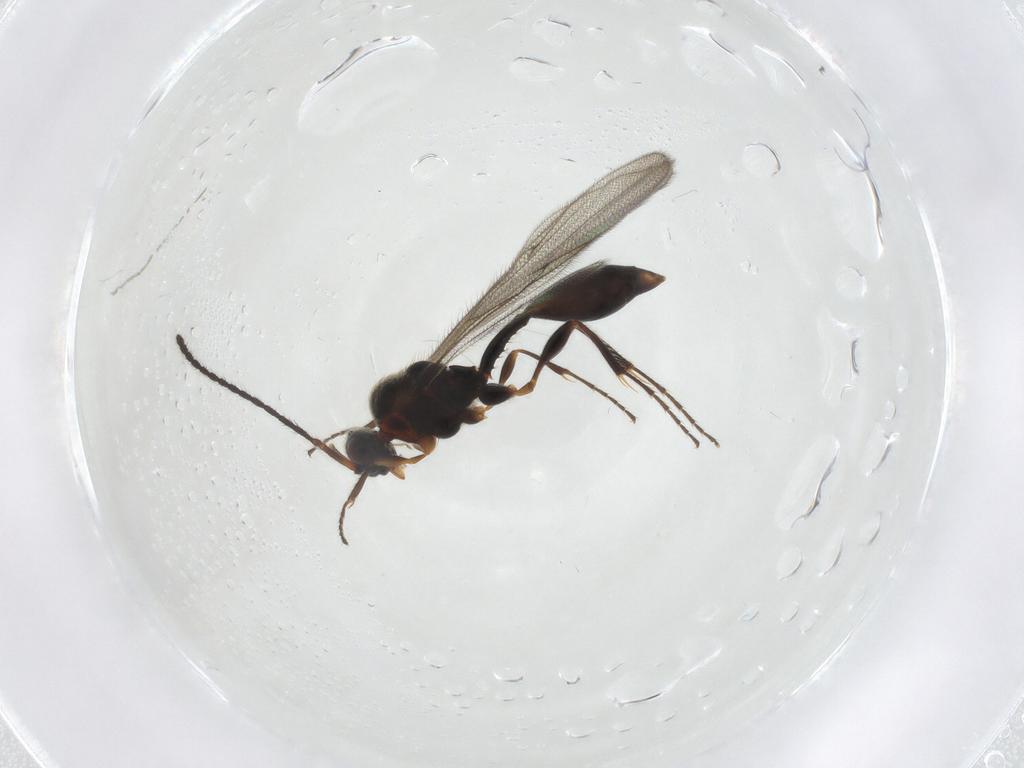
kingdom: Animalia
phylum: Arthropoda
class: Insecta
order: Hymenoptera
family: Diapriidae
